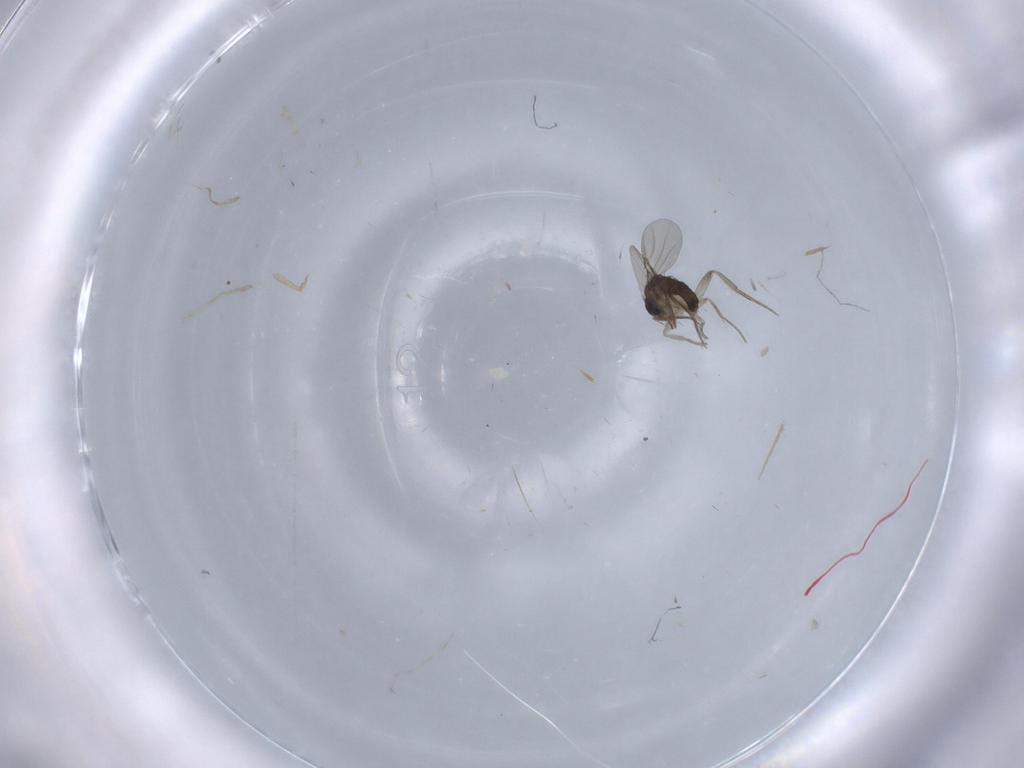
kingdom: Animalia
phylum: Arthropoda
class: Insecta
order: Diptera
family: Phoridae
